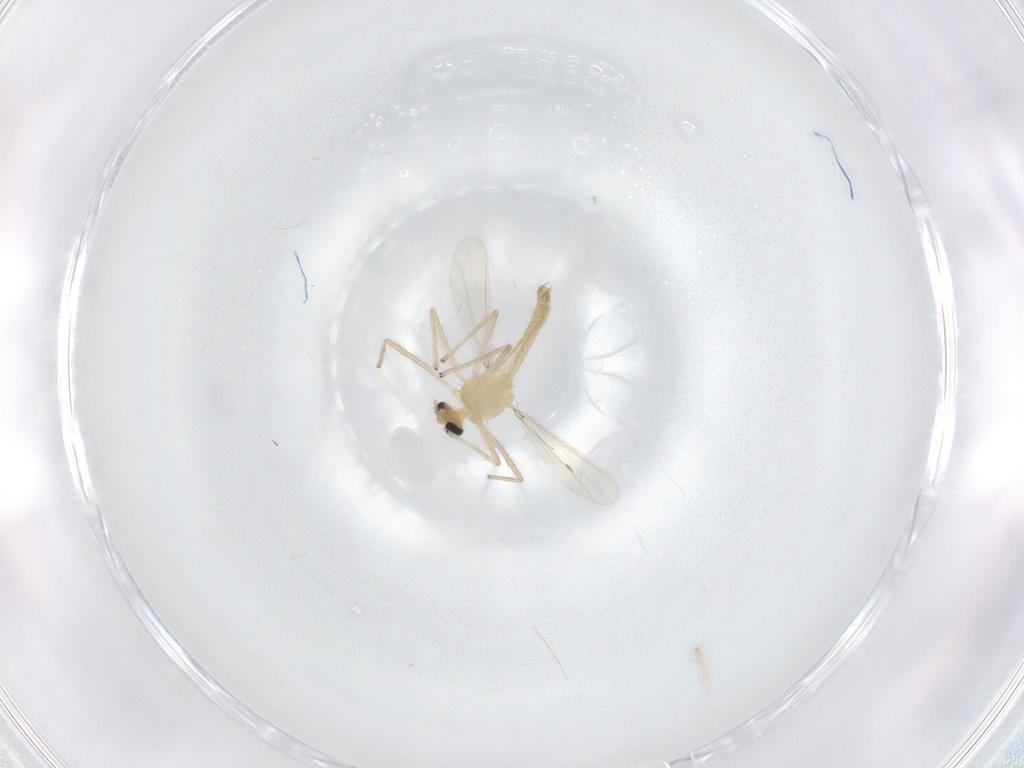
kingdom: Animalia
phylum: Arthropoda
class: Insecta
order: Diptera
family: Chironomidae
